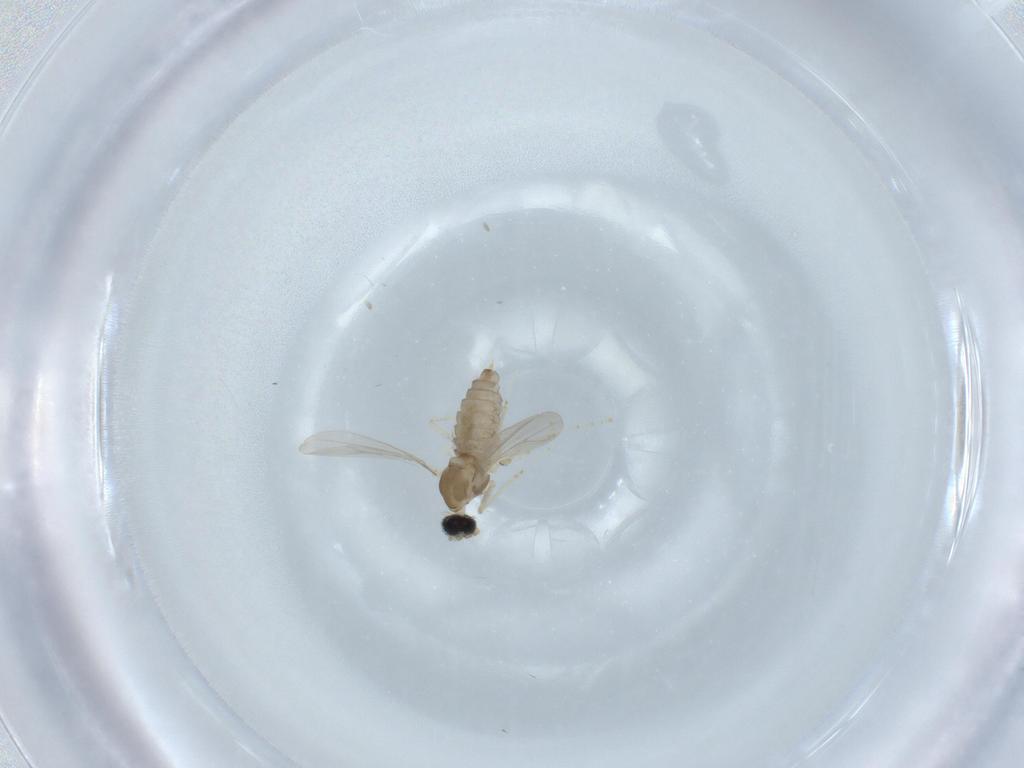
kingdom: Animalia
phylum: Arthropoda
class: Insecta
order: Diptera
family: Cecidomyiidae
